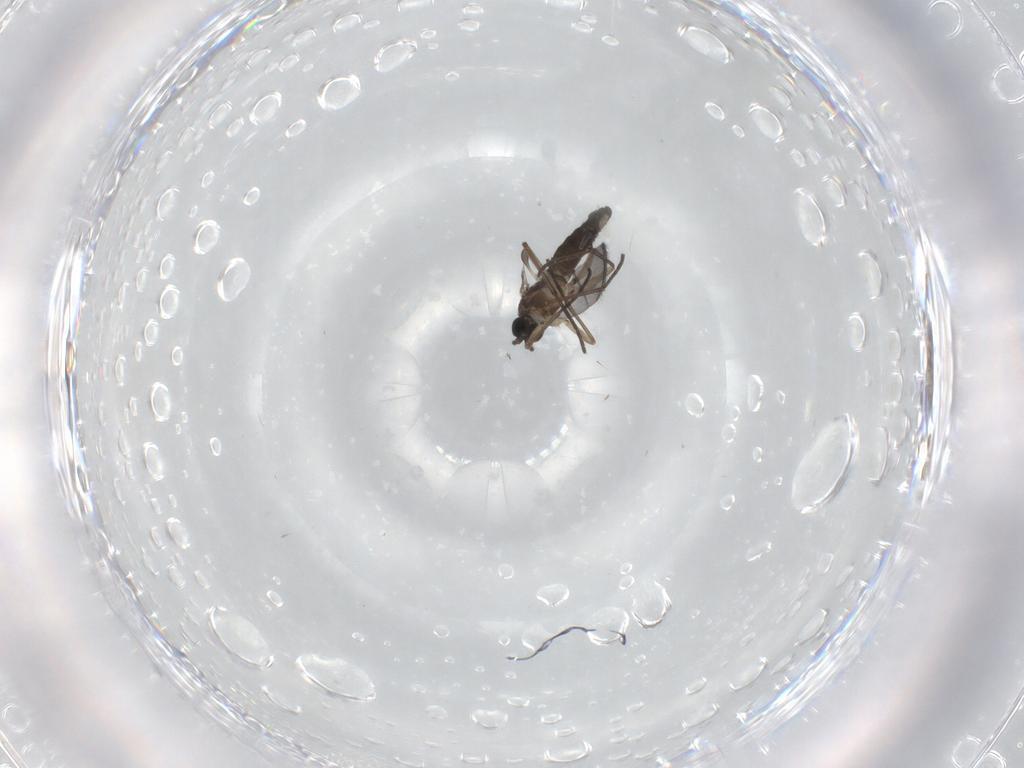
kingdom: Animalia
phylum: Arthropoda
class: Insecta
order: Diptera
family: Sciaridae
